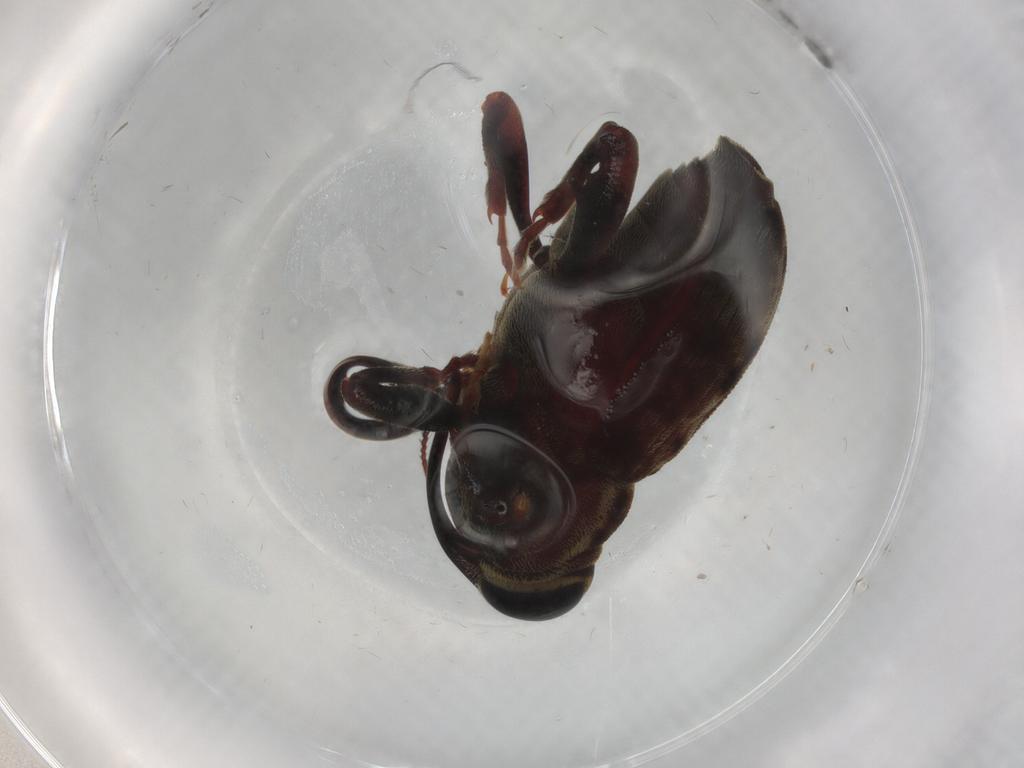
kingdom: Animalia
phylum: Arthropoda
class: Insecta
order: Coleoptera
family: Curculionidae
